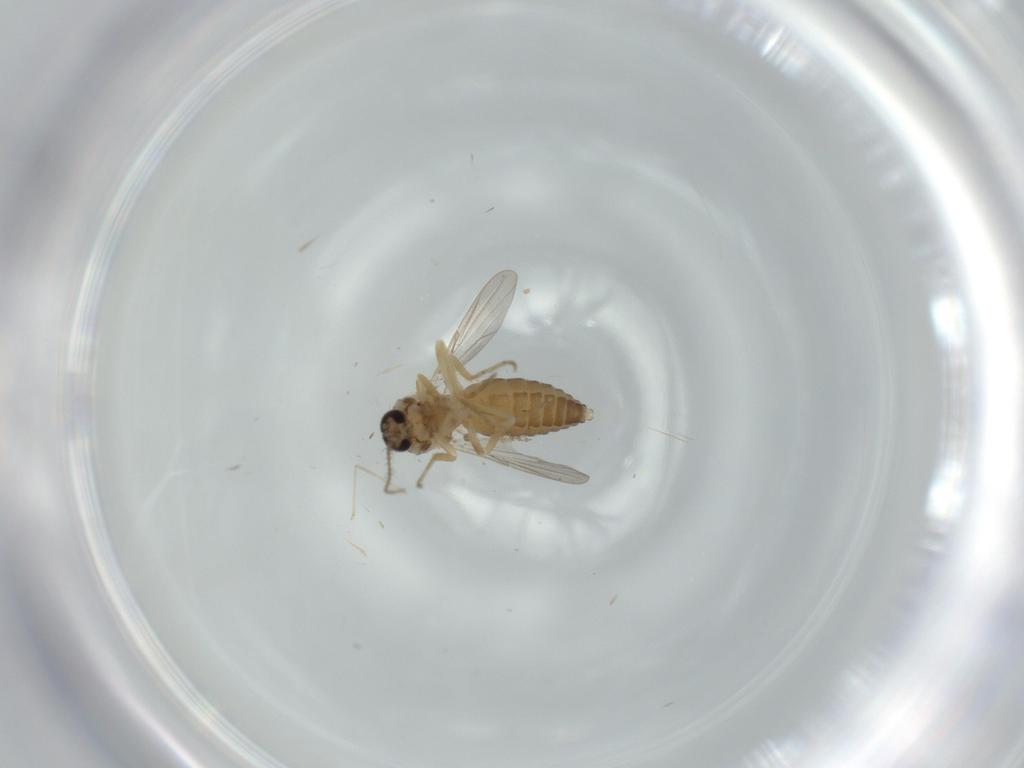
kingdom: Animalia
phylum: Arthropoda
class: Insecta
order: Diptera
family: Ceratopogonidae
